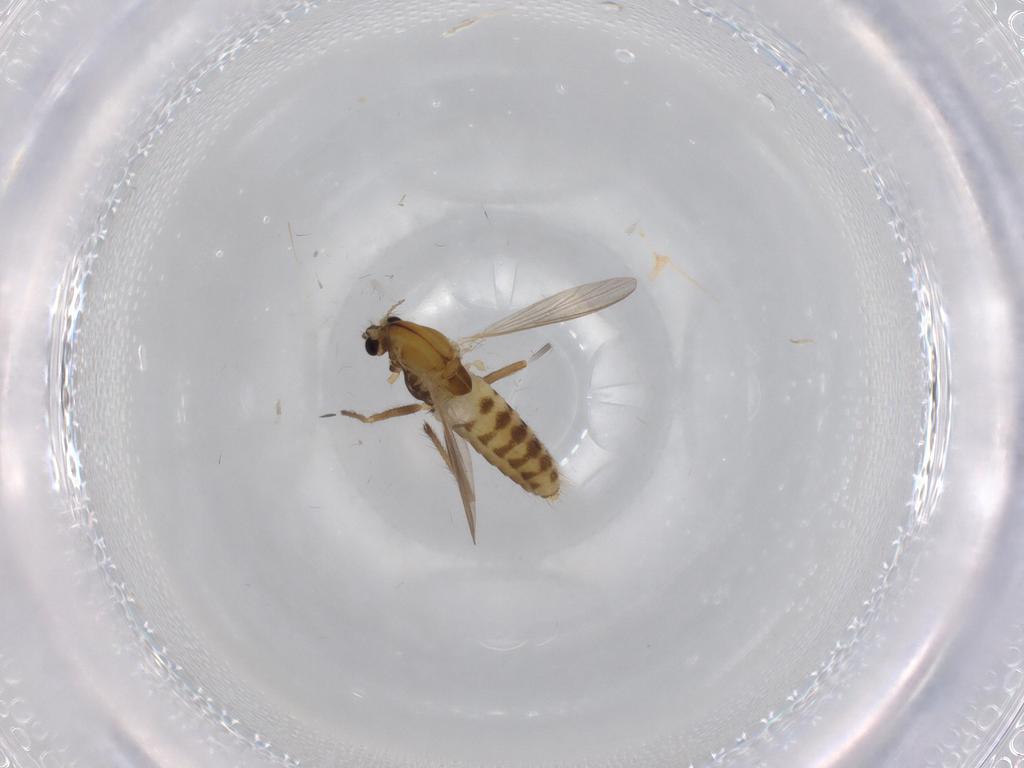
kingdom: Animalia
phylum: Arthropoda
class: Insecta
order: Diptera
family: Chironomidae
